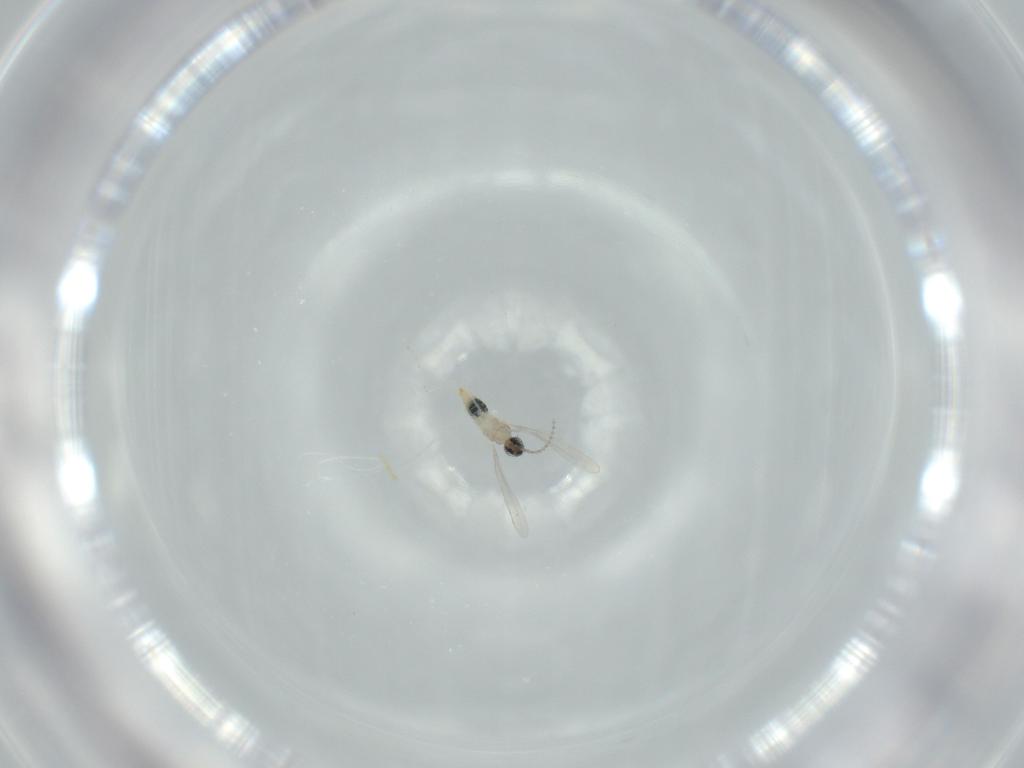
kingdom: Animalia
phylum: Arthropoda
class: Insecta
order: Diptera
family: Cecidomyiidae
